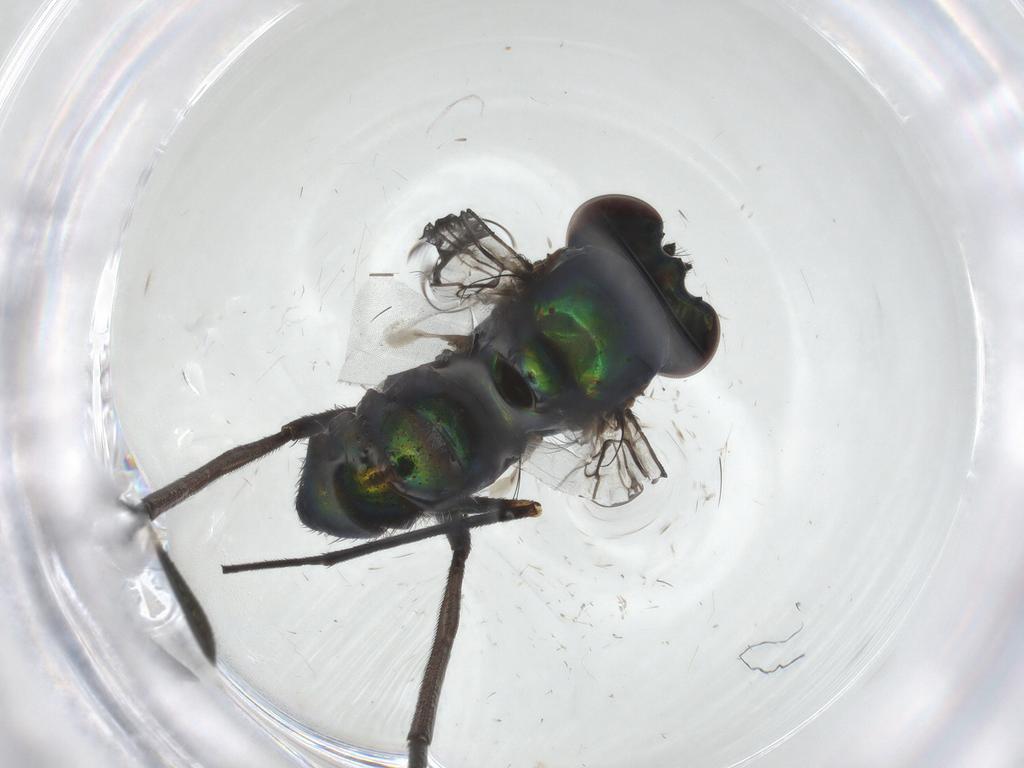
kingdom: Animalia
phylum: Arthropoda
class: Insecta
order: Diptera
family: Dolichopodidae
